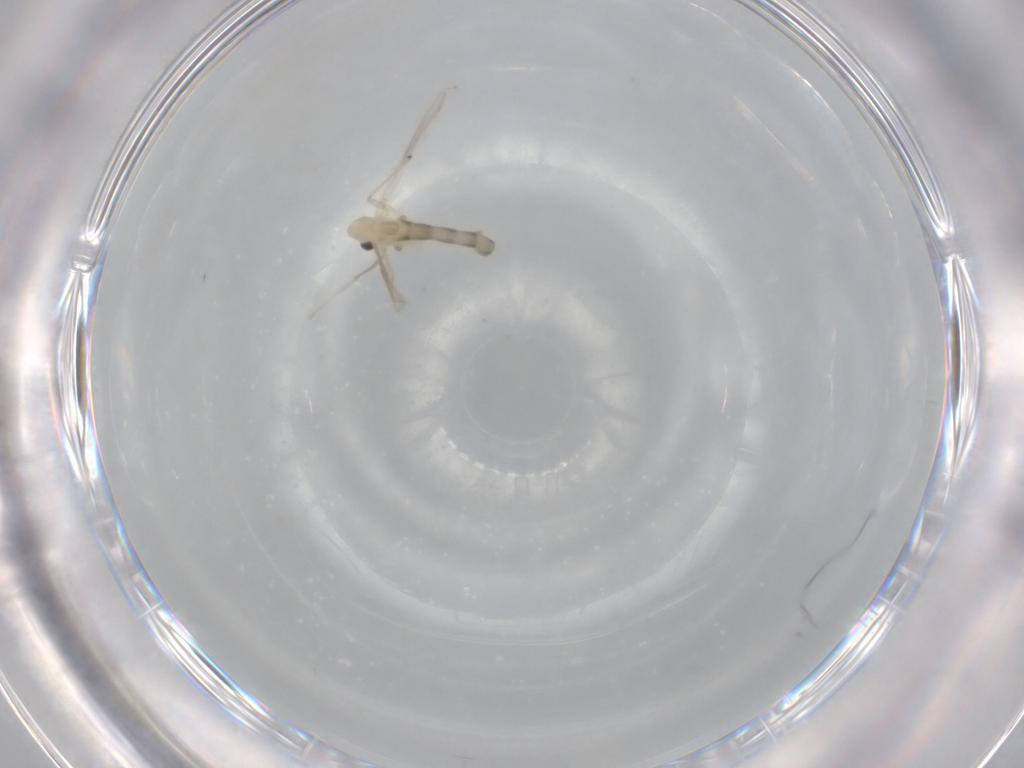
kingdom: Animalia
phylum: Arthropoda
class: Insecta
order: Diptera
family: Chironomidae
